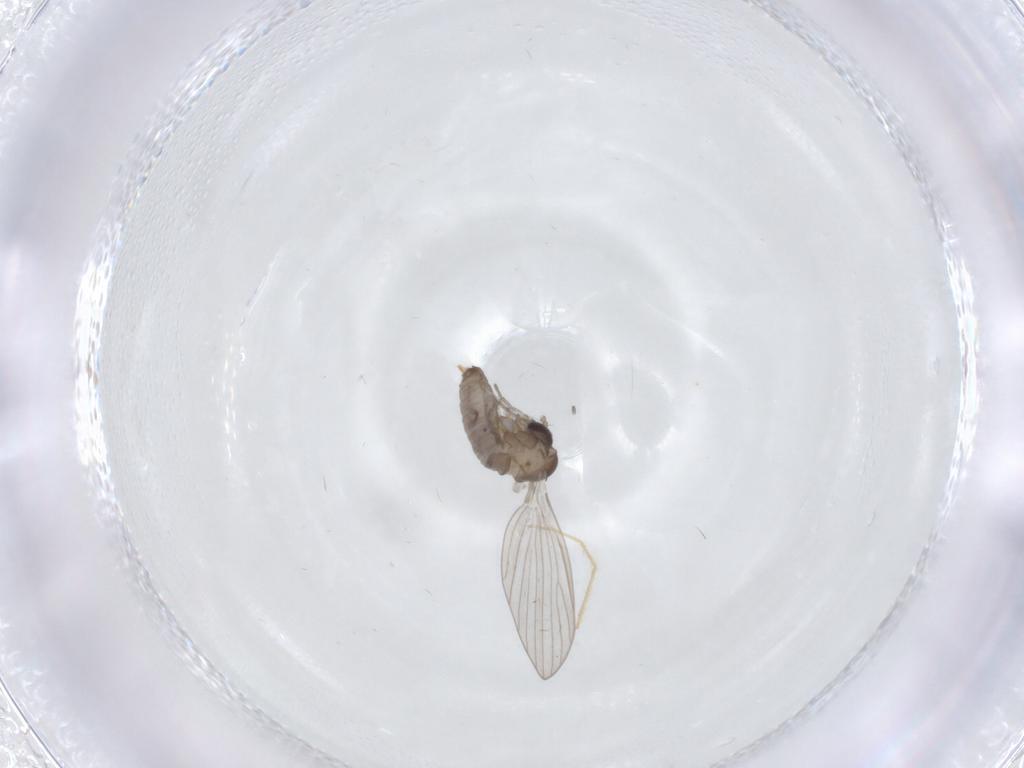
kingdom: Animalia
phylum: Arthropoda
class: Insecta
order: Diptera
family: Psychodidae
